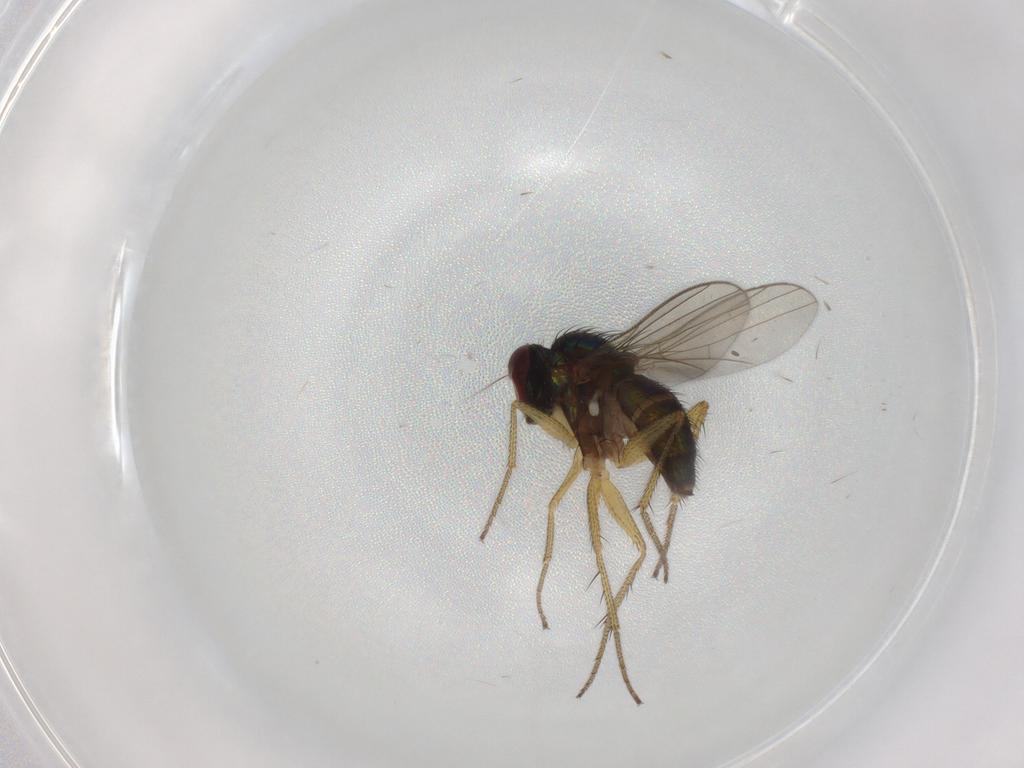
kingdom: Animalia
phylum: Arthropoda
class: Insecta
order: Diptera
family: Dolichopodidae
